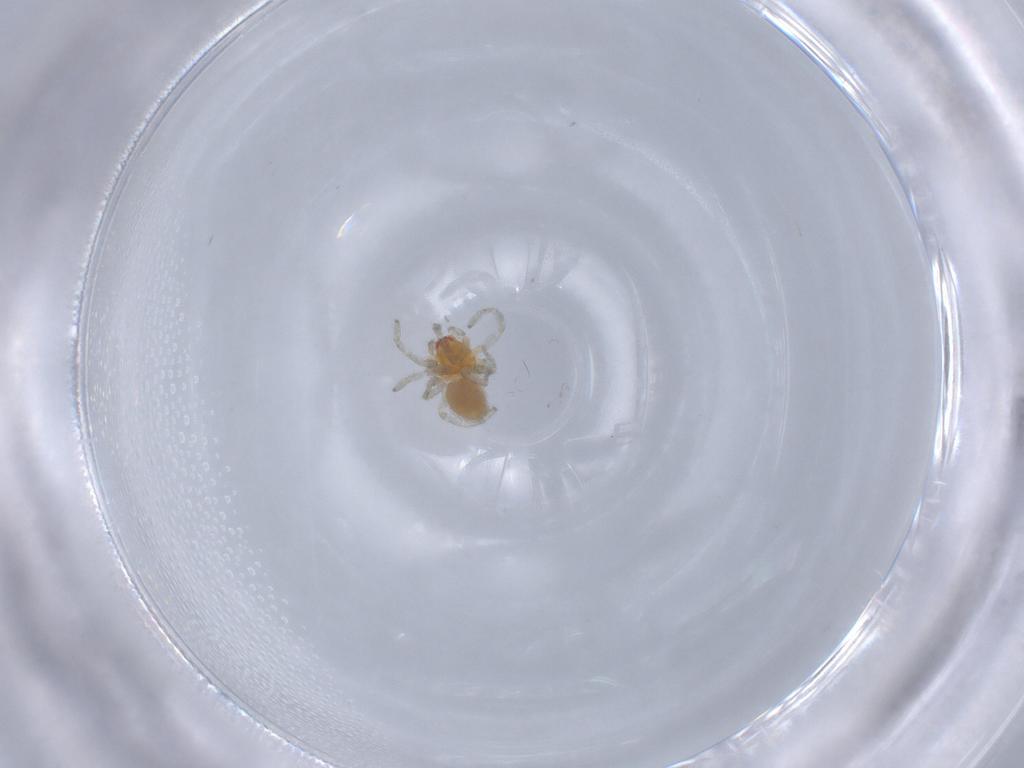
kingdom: Animalia
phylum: Arthropoda
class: Arachnida
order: Araneae
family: Dictynidae
